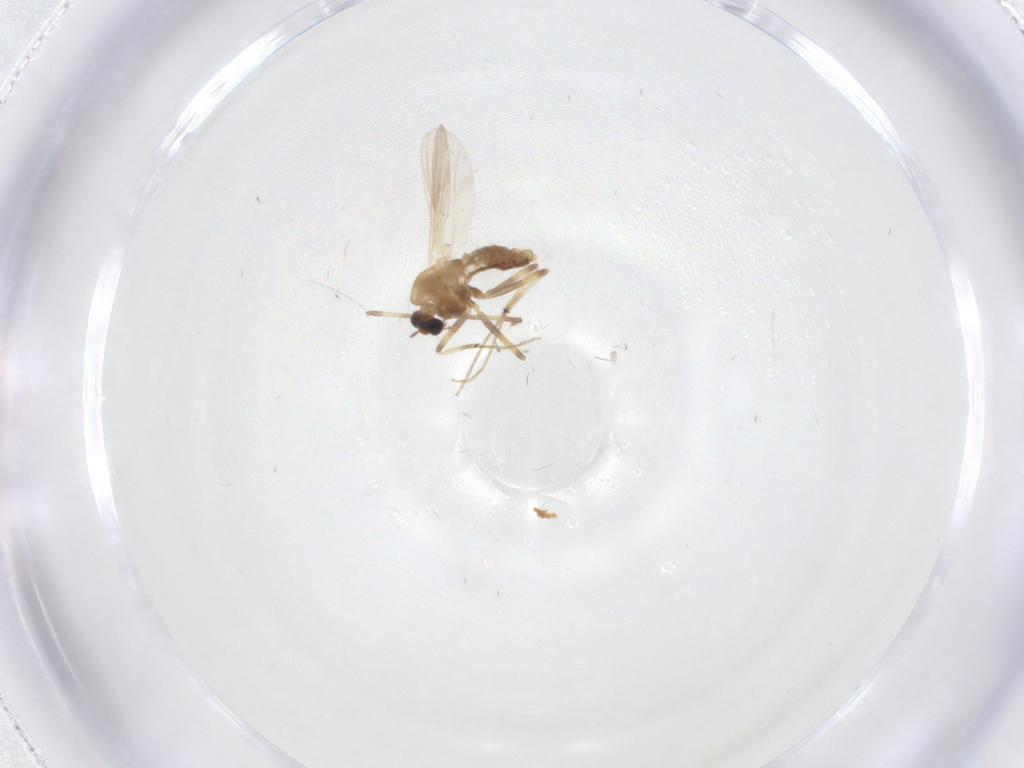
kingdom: Animalia
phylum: Arthropoda
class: Insecta
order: Diptera
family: Chironomidae
